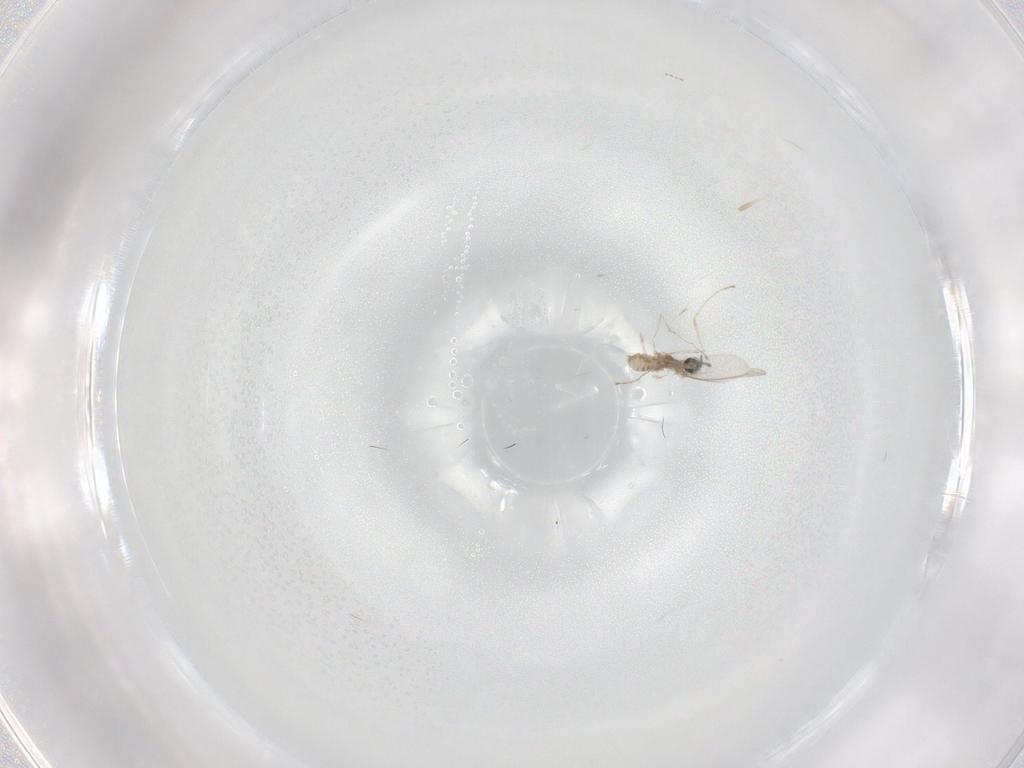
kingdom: Animalia
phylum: Arthropoda
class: Insecta
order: Diptera
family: Cecidomyiidae
